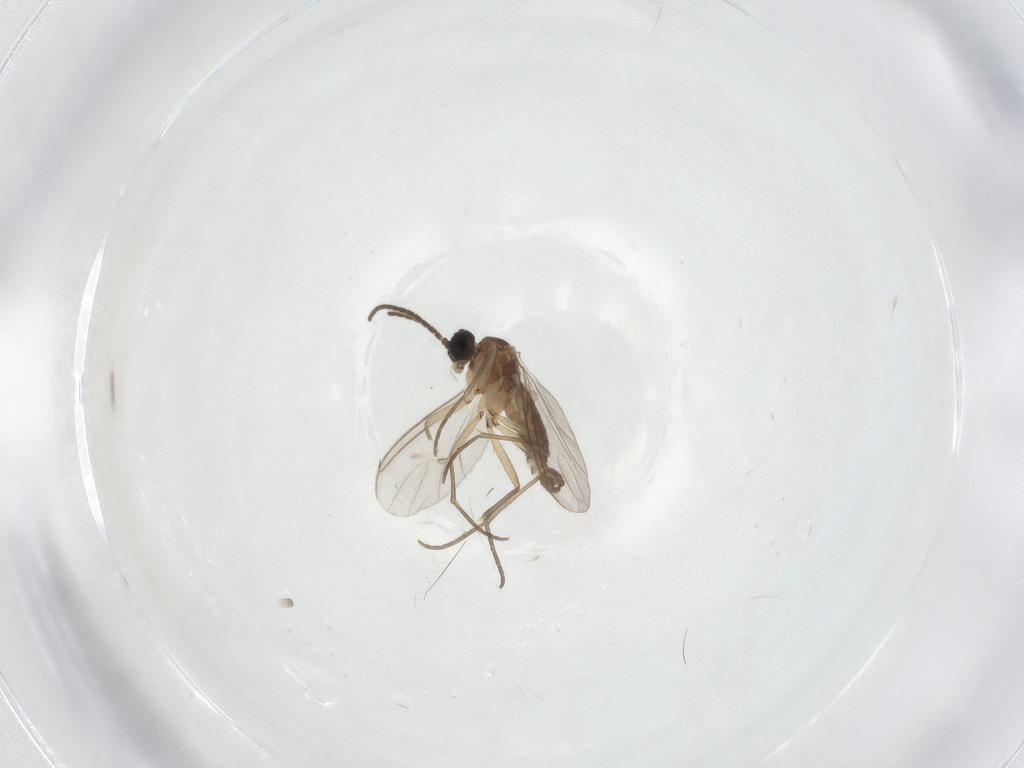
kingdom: Animalia
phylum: Arthropoda
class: Insecta
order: Diptera
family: Sciaridae
